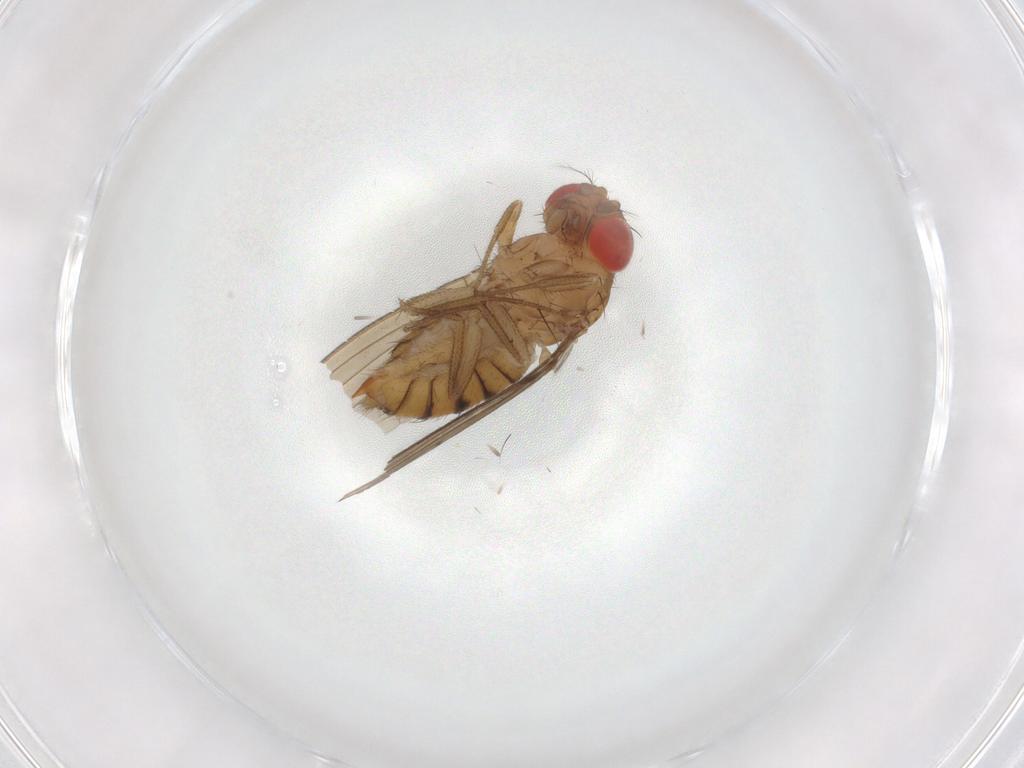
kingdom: Animalia
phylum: Arthropoda
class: Insecta
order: Diptera
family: Drosophilidae
